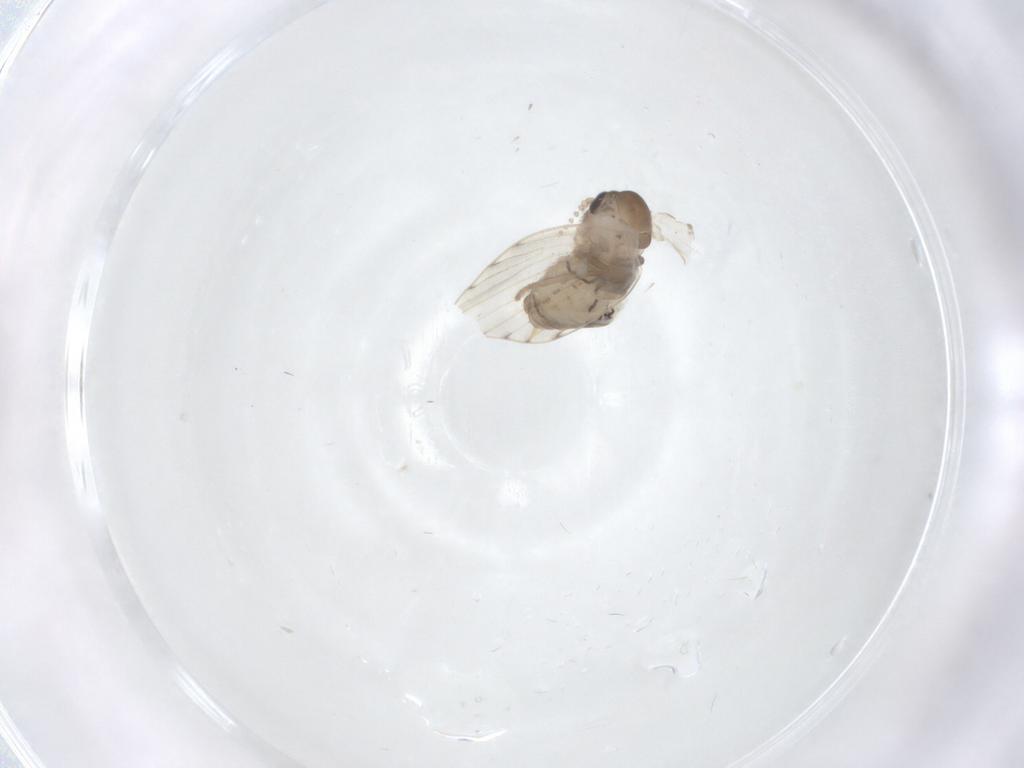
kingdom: Animalia
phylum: Arthropoda
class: Insecta
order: Diptera
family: Psychodidae
